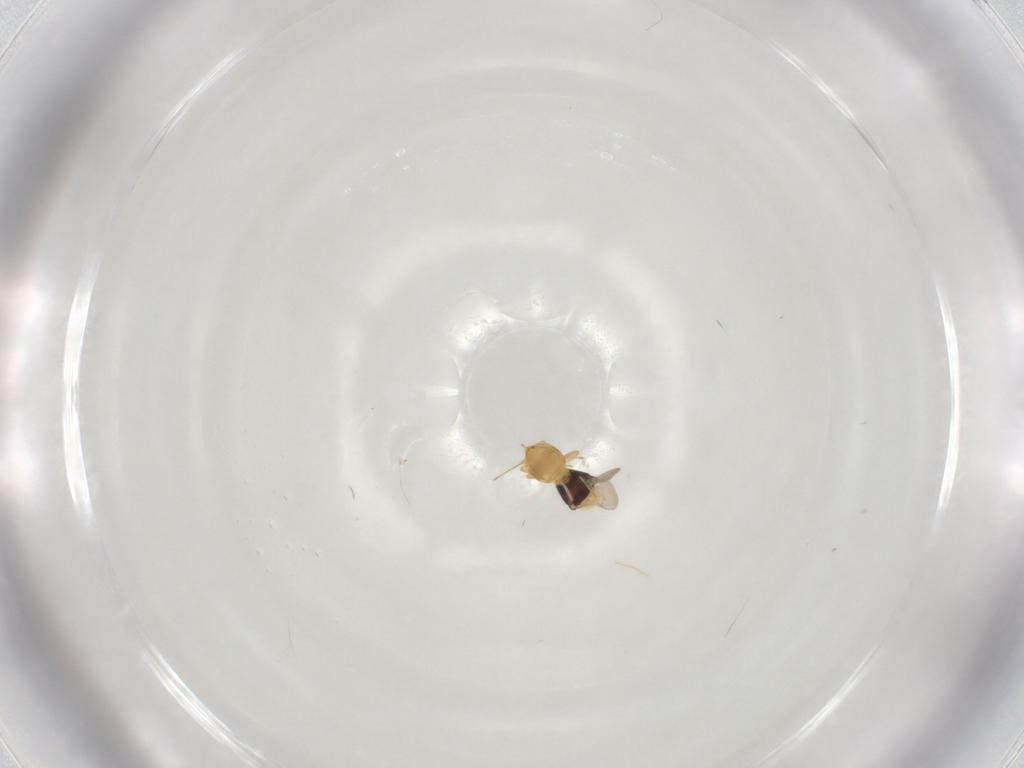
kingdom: Animalia
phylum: Arthropoda
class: Insecta
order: Hymenoptera
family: Scelionidae
